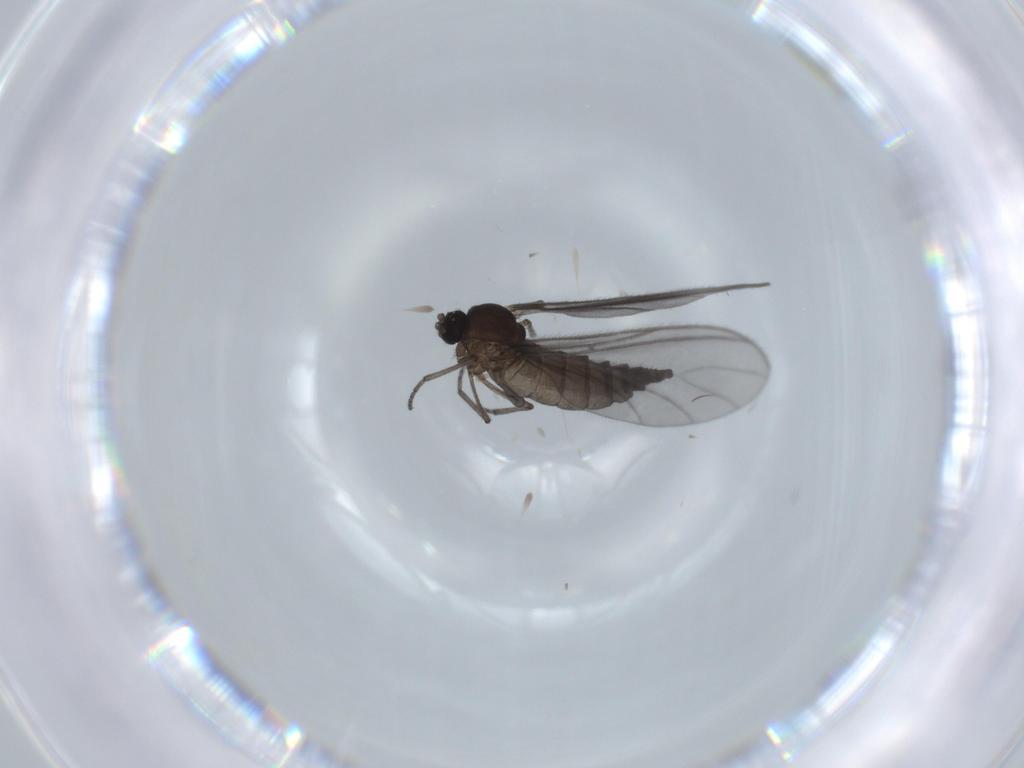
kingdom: Animalia
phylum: Arthropoda
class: Insecta
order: Diptera
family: Sciaridae
